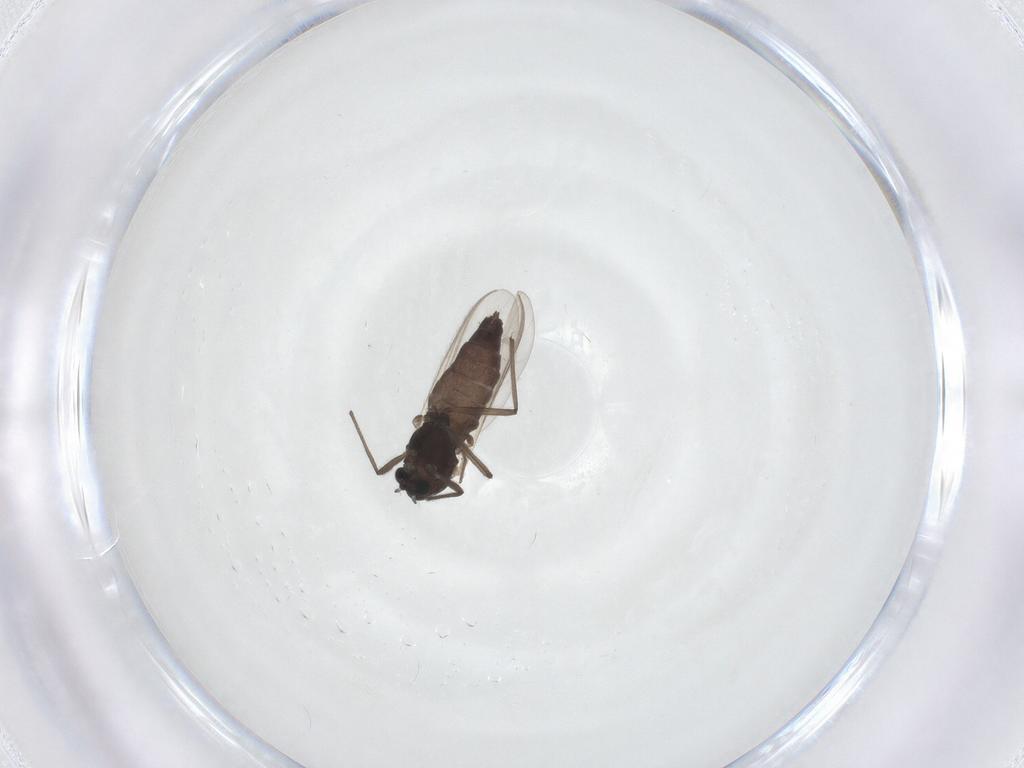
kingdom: Animalia
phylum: Arthropoda
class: Insecta
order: Diptera
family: Chironomidae
